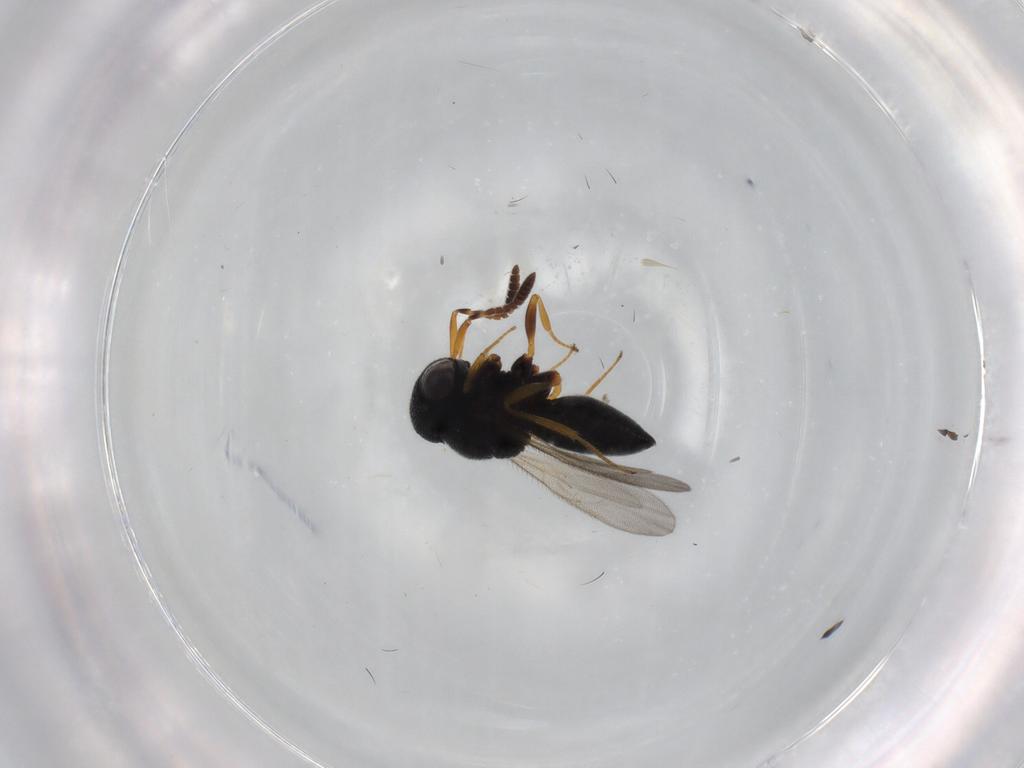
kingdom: Animalia
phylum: Arthropoda
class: Insecta
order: Hymenoptera
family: Scelionidae
